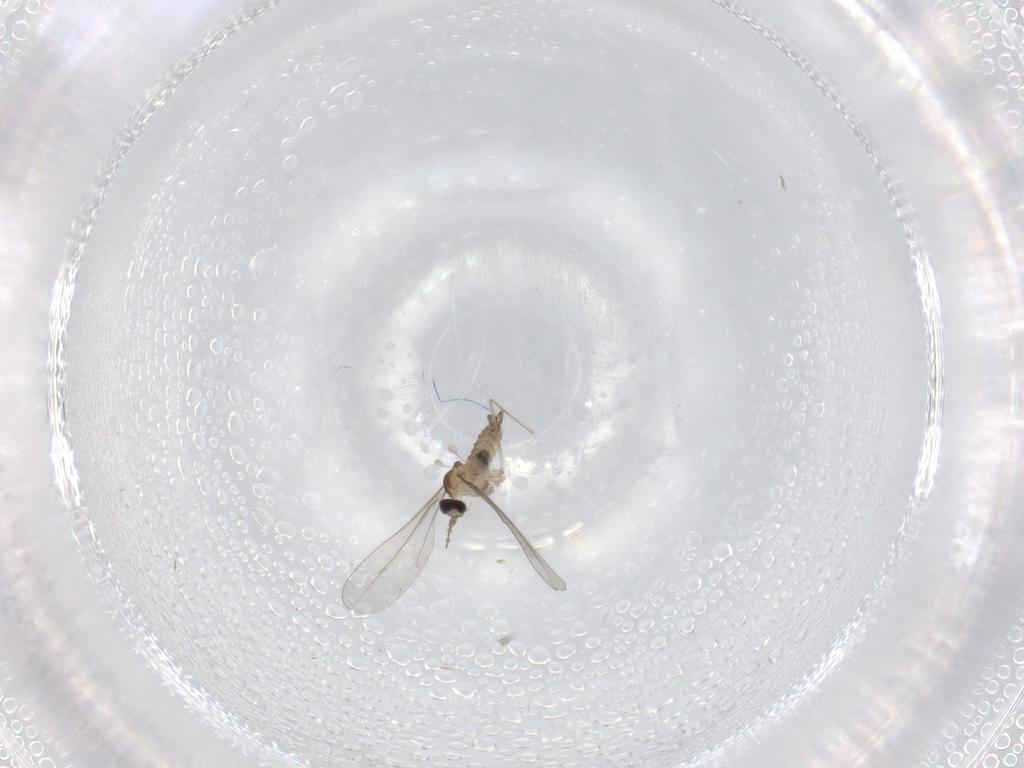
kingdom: Animalia
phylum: Arthropoda
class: Insecta
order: Diptera
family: Cecidomyiidae
